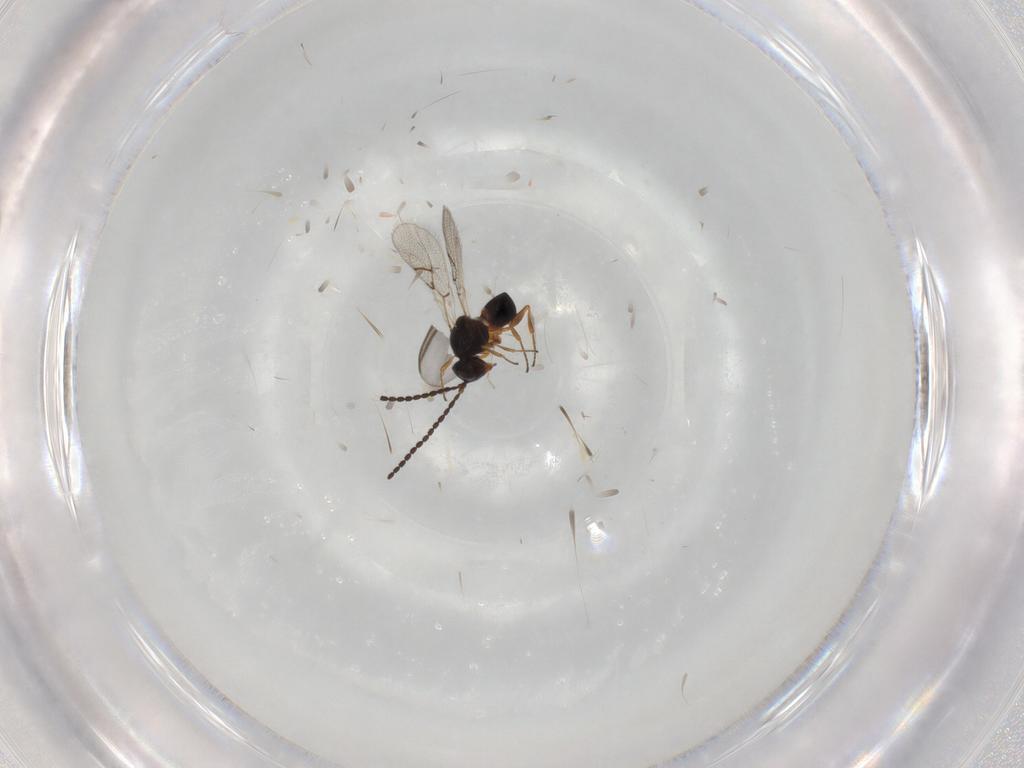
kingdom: Animalia
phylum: Arthropoda
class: Insecta
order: Hymenoptera
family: Figitidae
